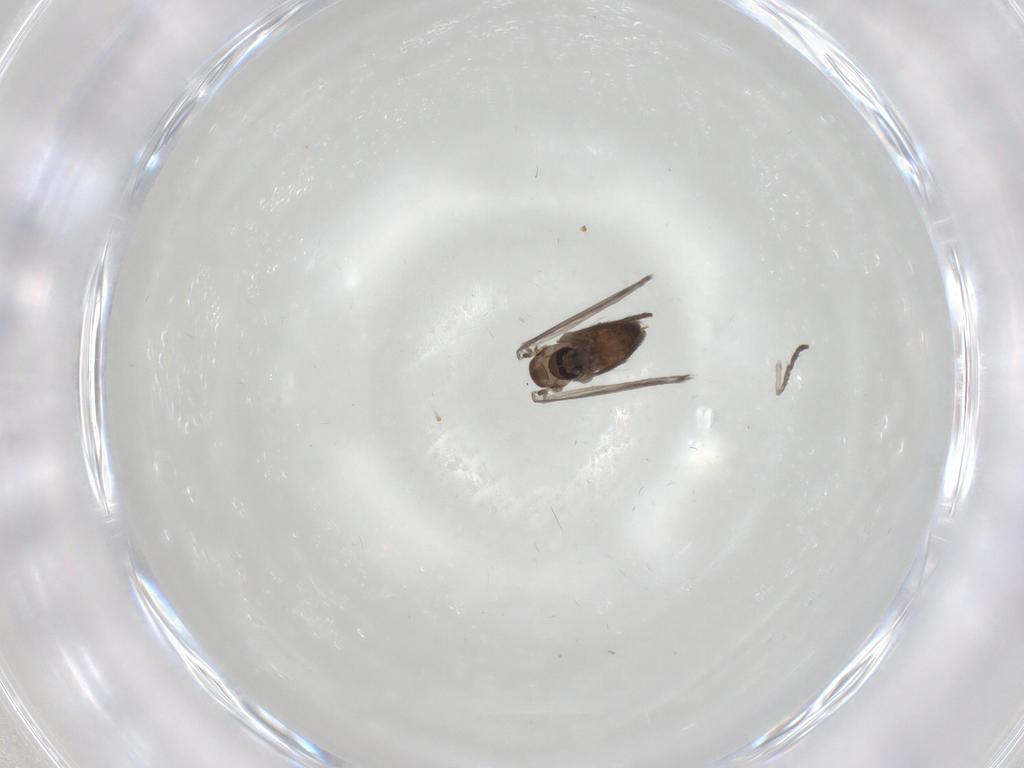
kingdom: Animalia
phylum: Arthropoda
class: Insecta
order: Diptera
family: Psychodidae
